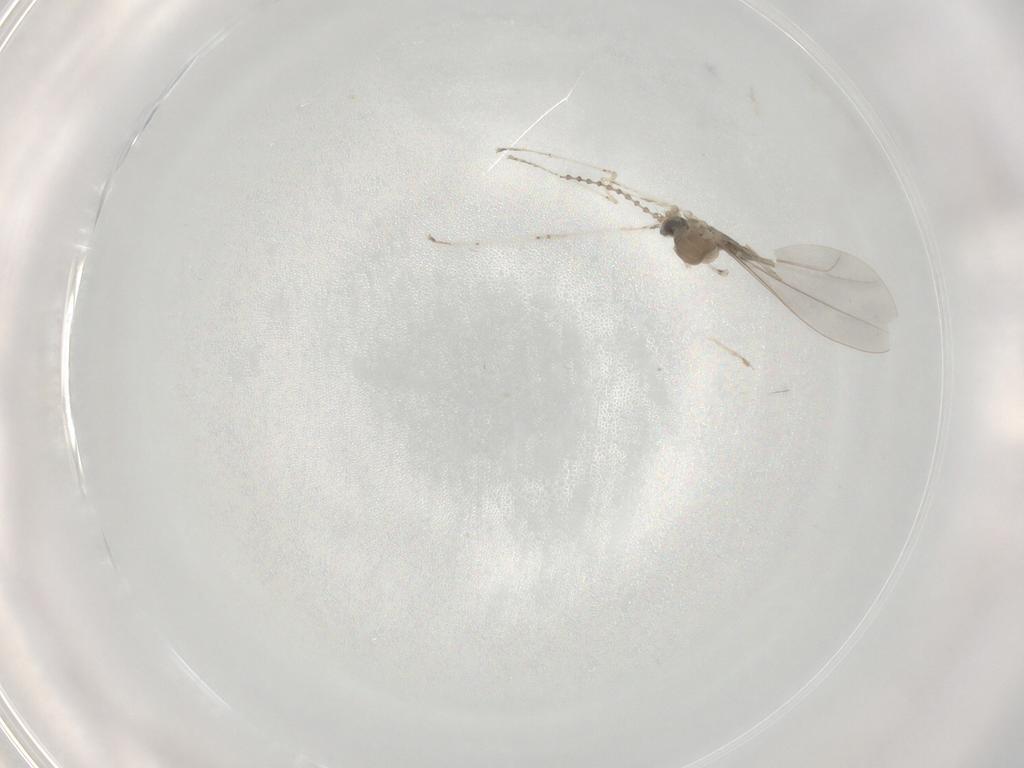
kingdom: Animalia
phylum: Arthropoda
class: Insecta
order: Diptera
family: Cecidomyiidae
